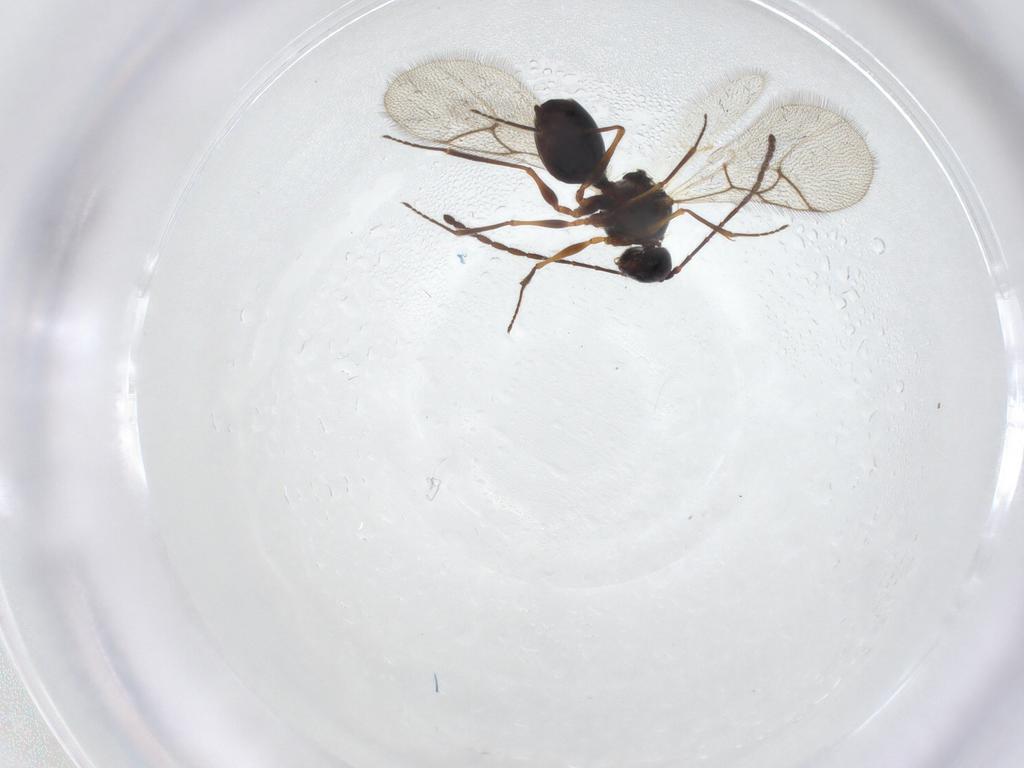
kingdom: Animalia
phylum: Arthropoda
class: Insecta
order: Hymenoptera
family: Figitidae
